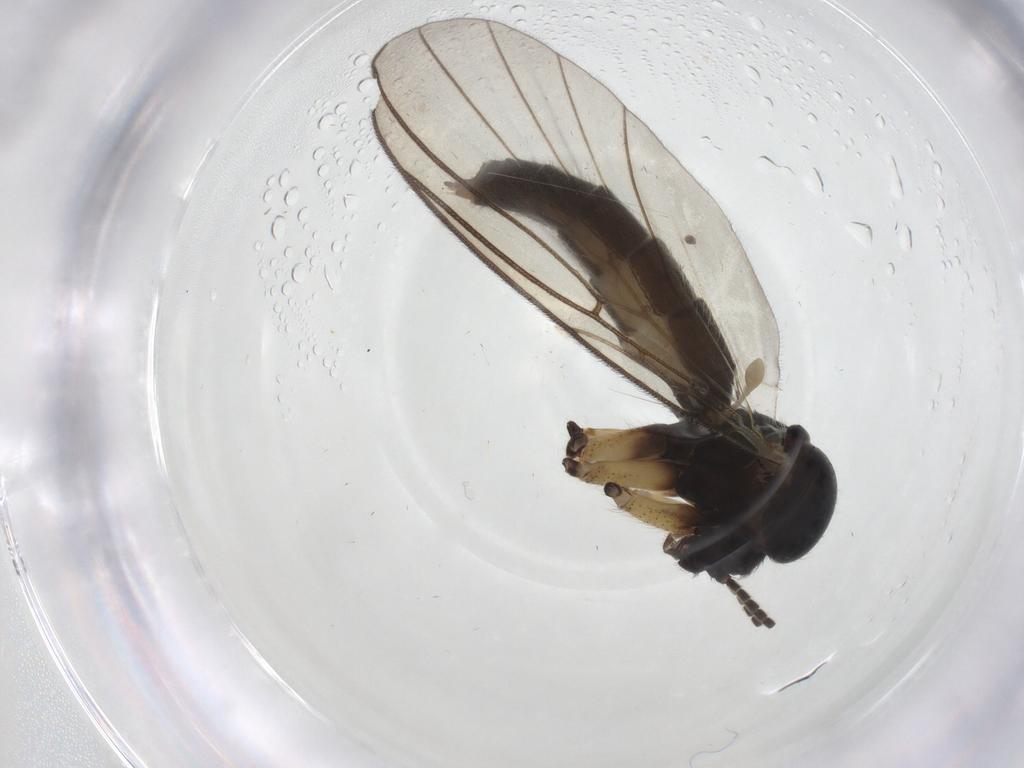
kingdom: Animalia
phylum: Arthropoda
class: Insecta
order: Diptera
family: Mycetophilidae
